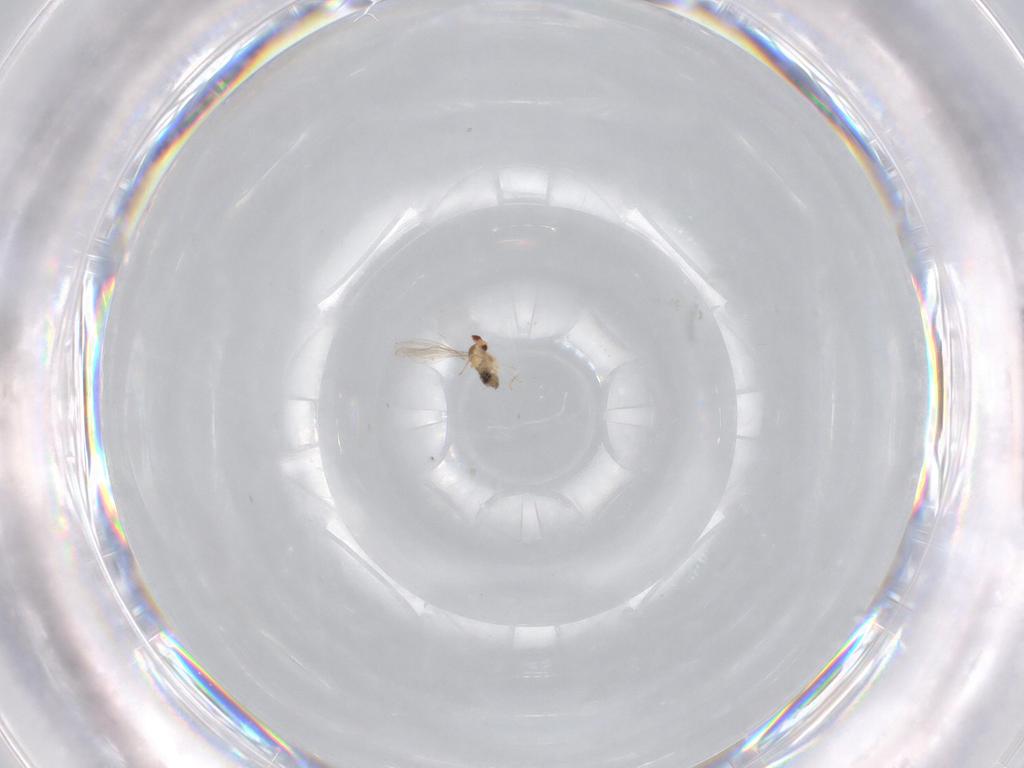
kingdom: Animalia
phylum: Arthropoda
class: Insecta
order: Diptera
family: Cecidomyiidae
